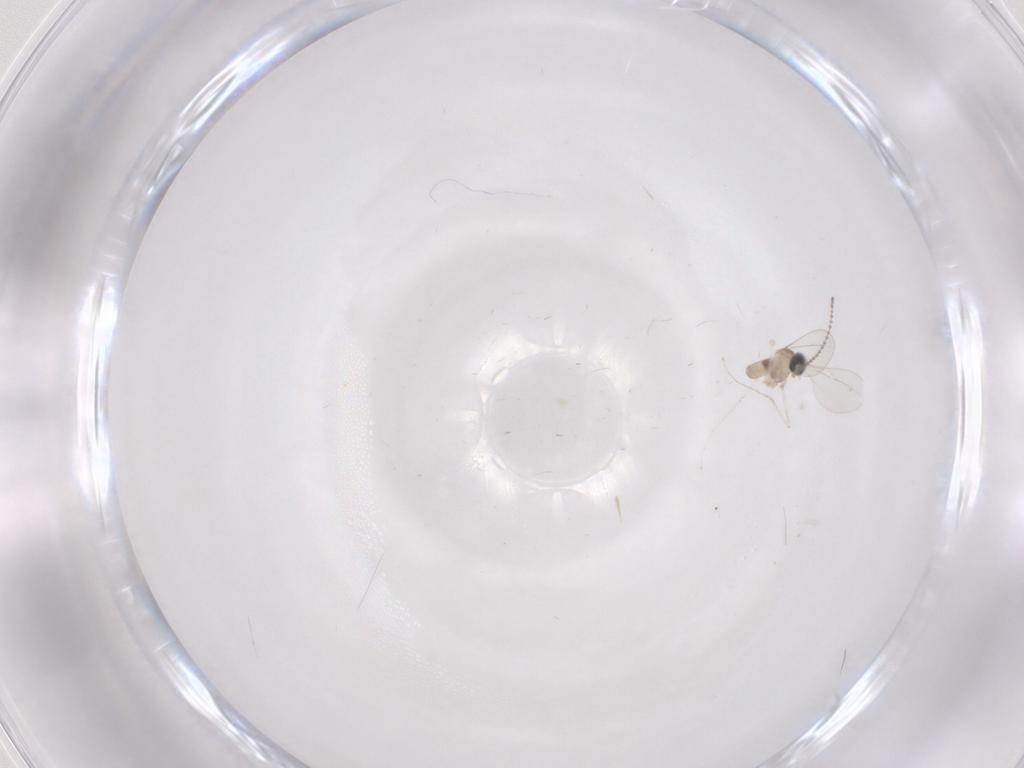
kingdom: Animalia
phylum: Arthropoda
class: Insecta
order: Diptera
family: Cecidomyiidae
